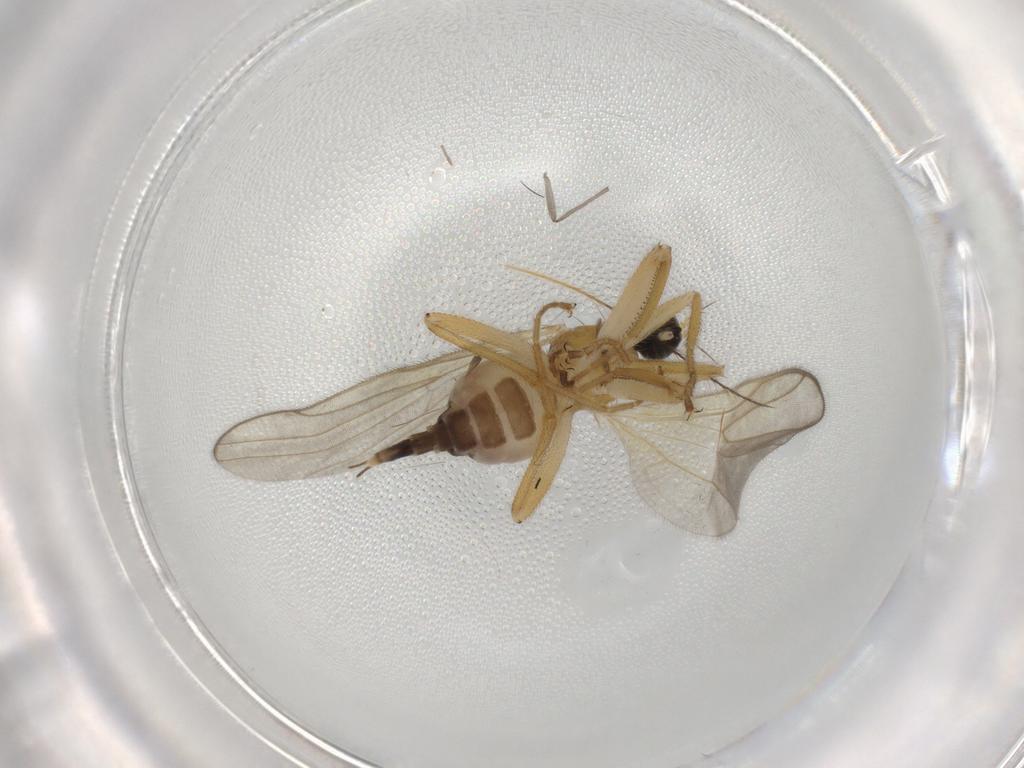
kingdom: Animalia
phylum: Arthropoda
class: Insecta
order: Diptera
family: Hybotidae
